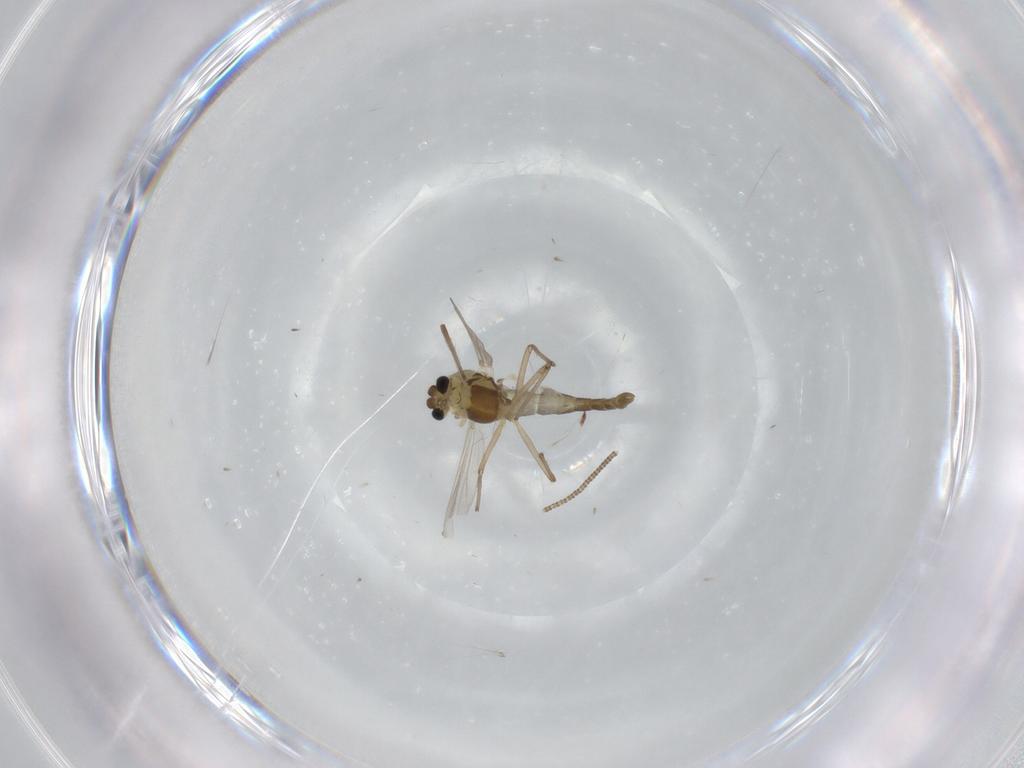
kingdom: Animalia
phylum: Arthropoda
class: Insecta
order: Diptera
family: Chironomidae
